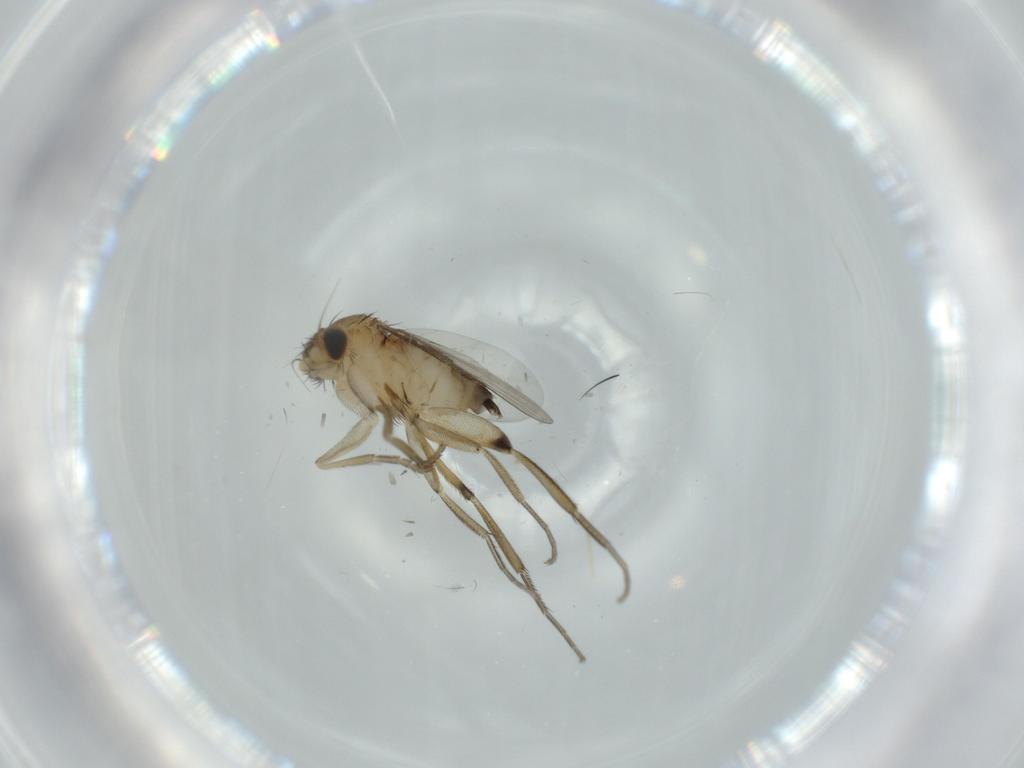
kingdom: Animalia
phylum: Arthropoda
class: Insecta
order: Diptera
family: Phoridae
